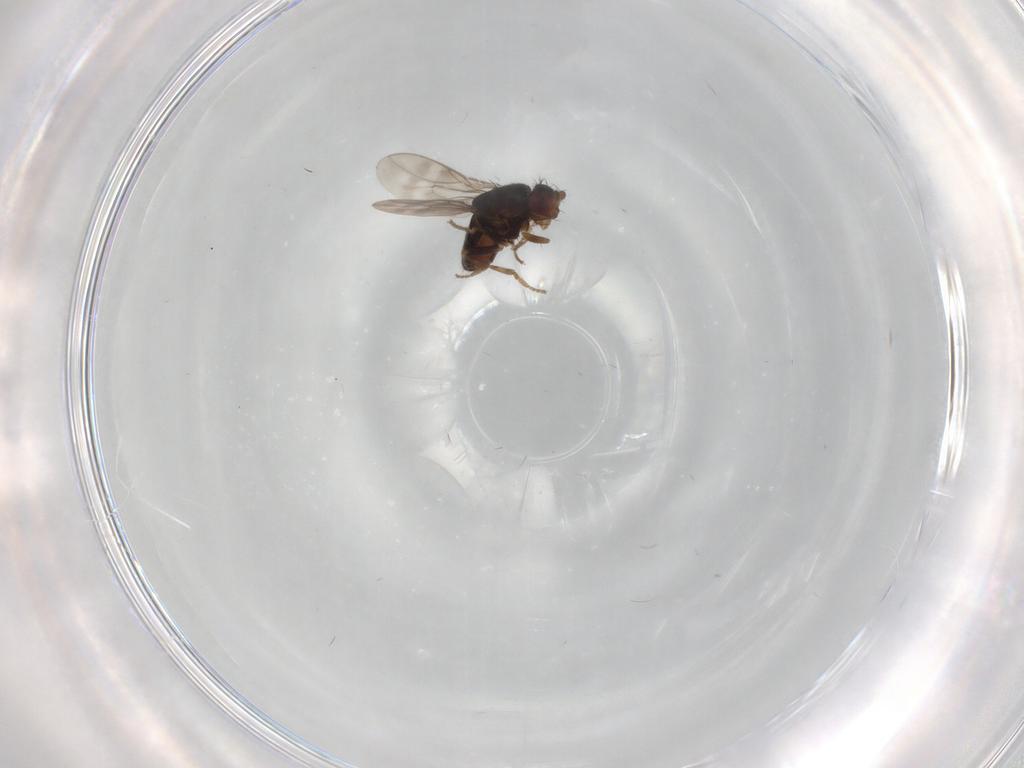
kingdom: Animalia
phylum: Arthropoda
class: Insecta
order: Diptera
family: Sphaeroceridae
